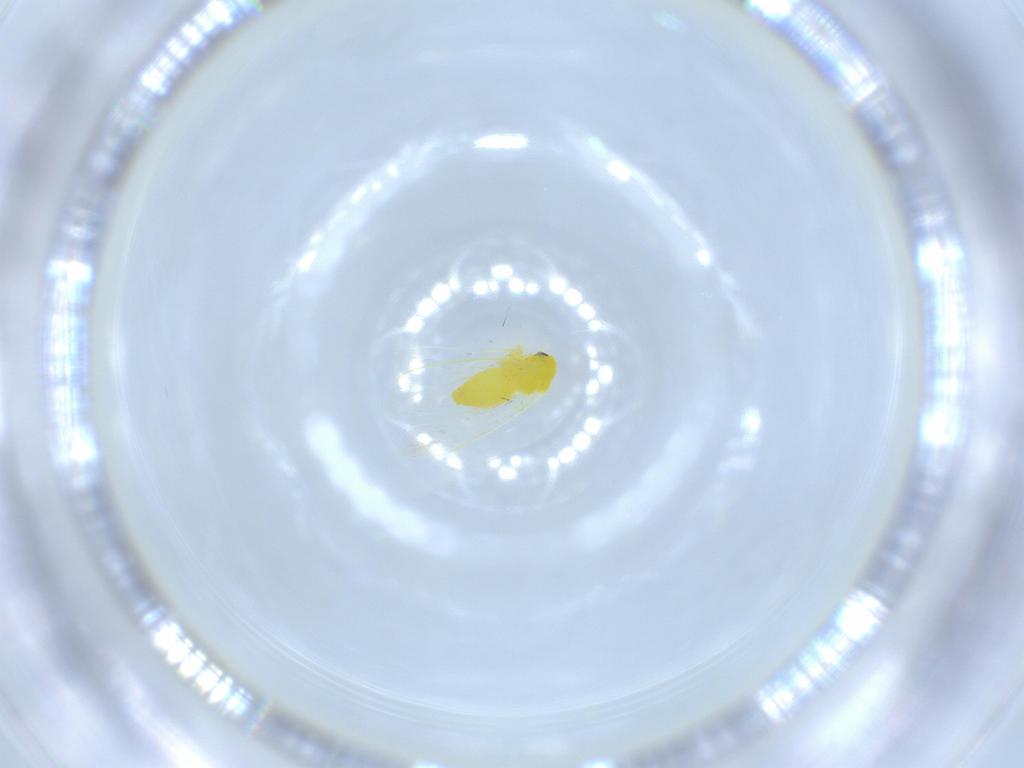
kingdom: Animalia
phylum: Arthropoda
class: Insecta
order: Hemiptera
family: Aleyrodidae
